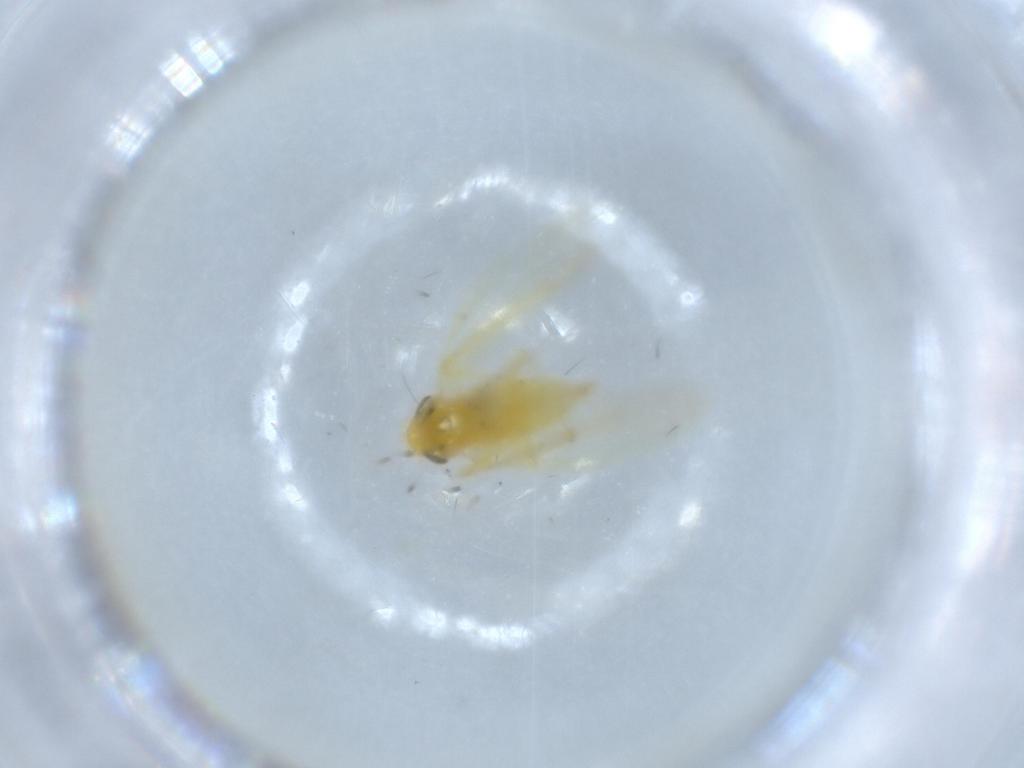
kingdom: Animalia
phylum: Arthropoda
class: Insecta
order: Hemiptera
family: Cicadellidae
